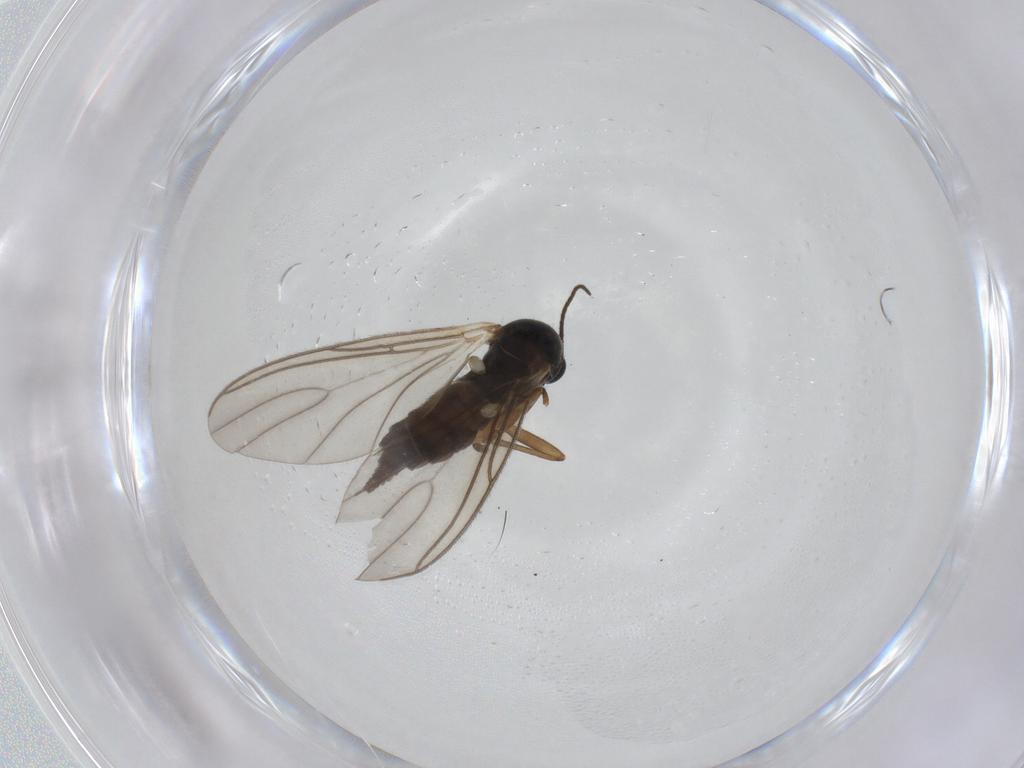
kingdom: Animalia
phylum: Arthropoda
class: Insecta
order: Diptera
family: Sciaridae
